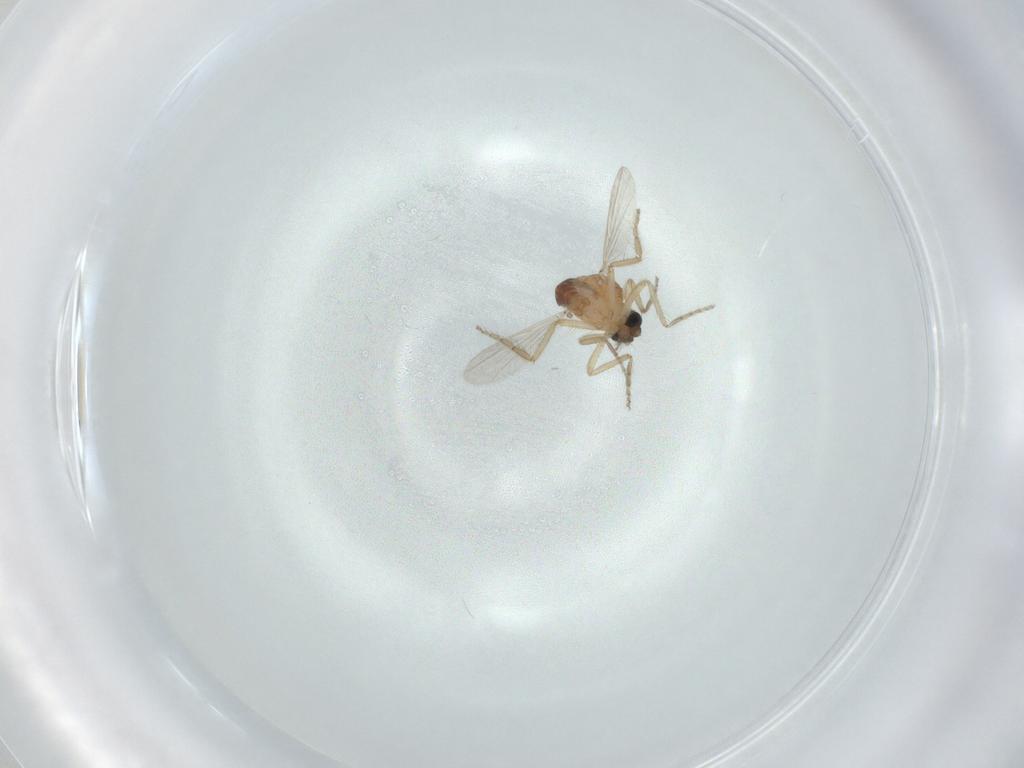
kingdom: Animalia
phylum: Arthropoda
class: Insecta
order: Diptera
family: Ceratopogonidae
